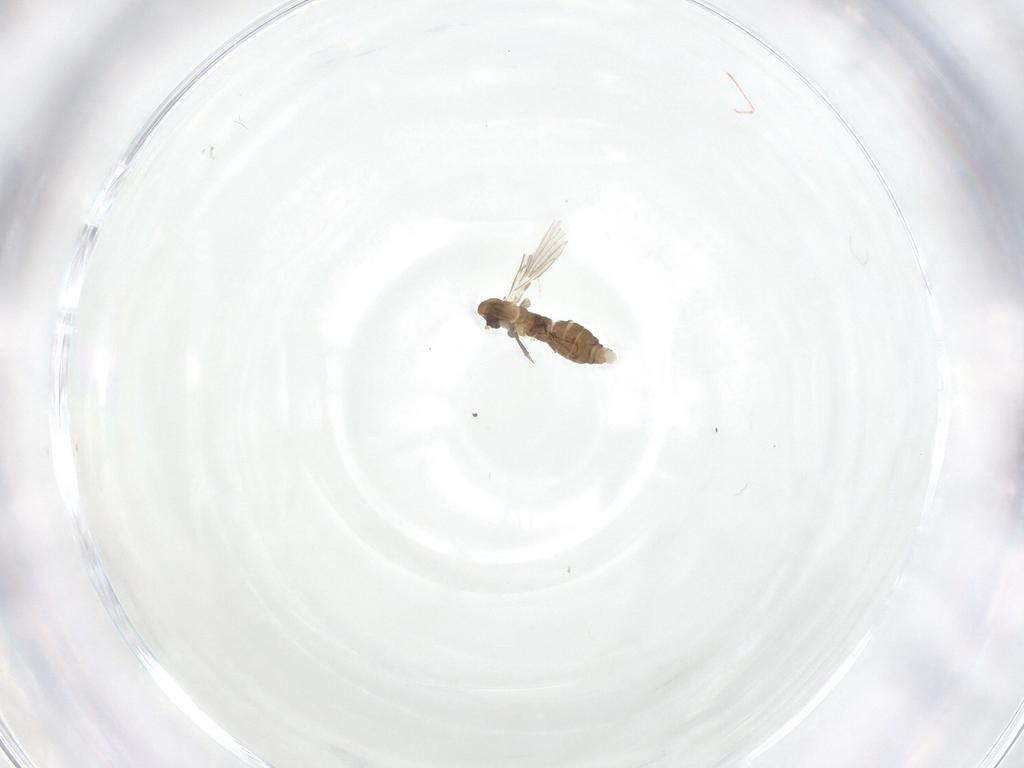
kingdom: Animalia
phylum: Arthropoda
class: Insecta
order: Diptera
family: Psychodidae
